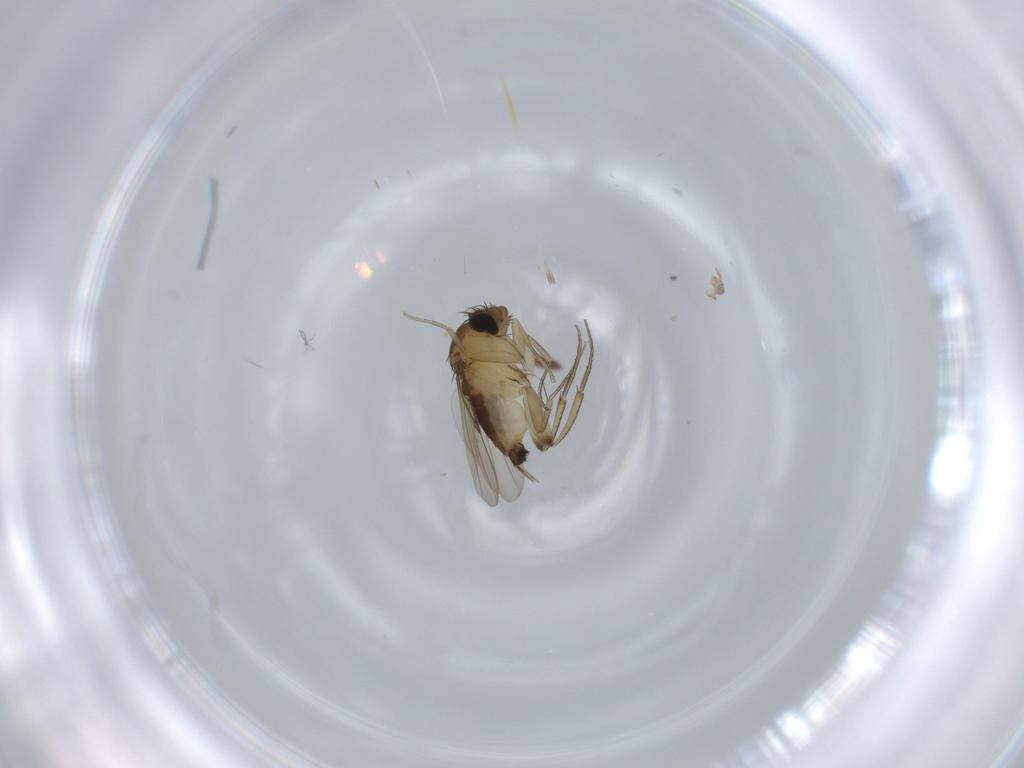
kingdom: Animalia
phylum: Arthropoda
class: Insecta
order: Diptera
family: Phoridae
